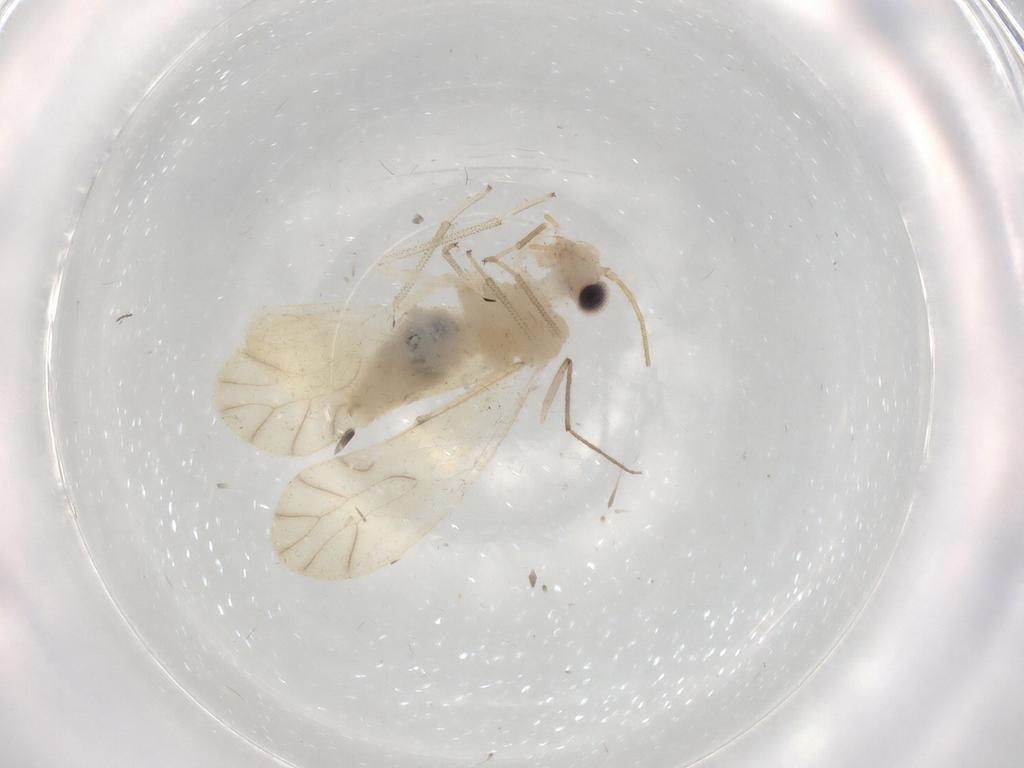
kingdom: Animalia
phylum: Arthropoda
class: Insecta
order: Psocodea
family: Caeciliusidae
